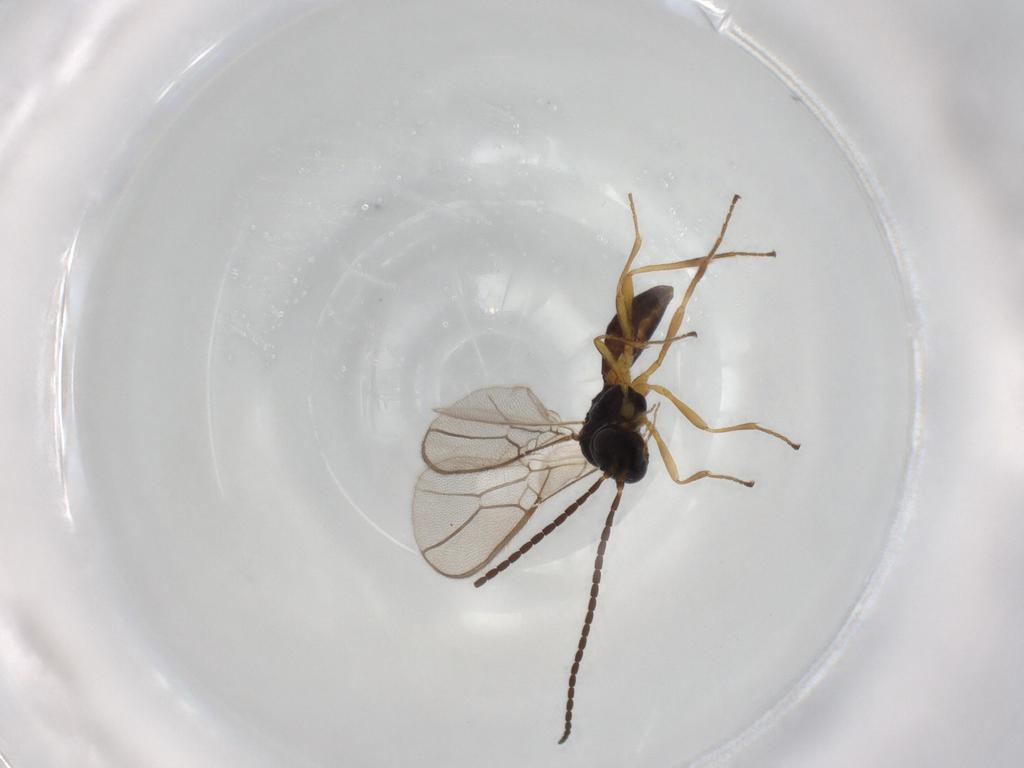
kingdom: Animalia
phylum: Arthropoda
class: Insecta
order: Hymenoptera
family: Braconidae
